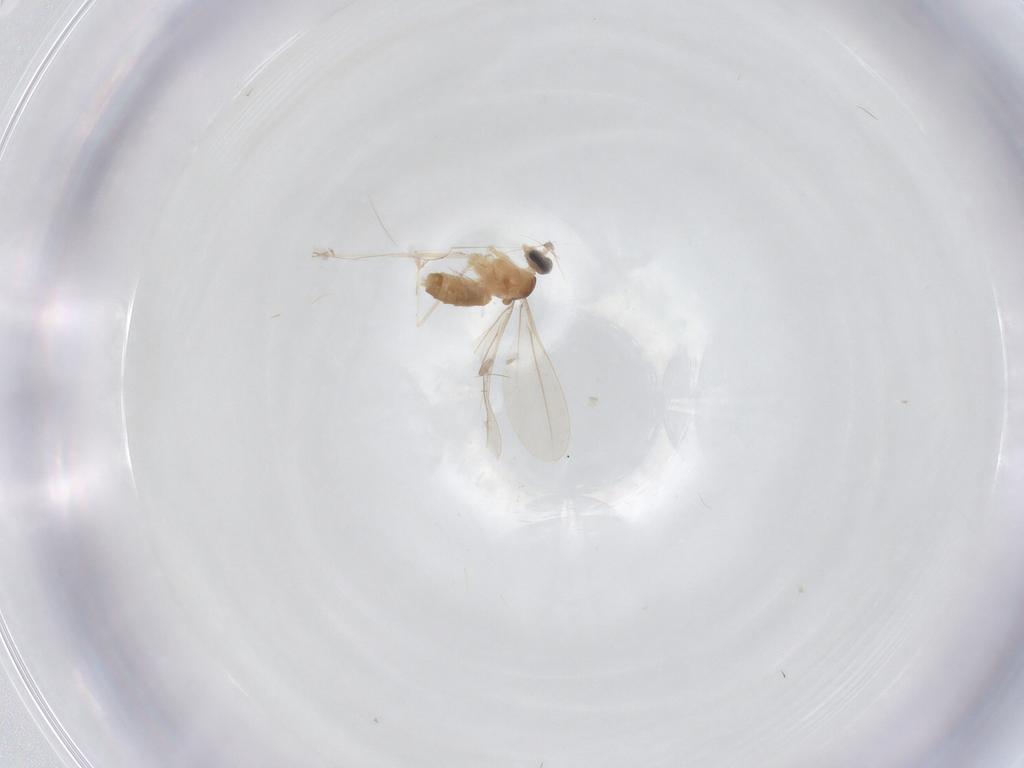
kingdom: Animalia
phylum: Arthropoda
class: Insecta
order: Diptera
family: Cecidomyiidae
